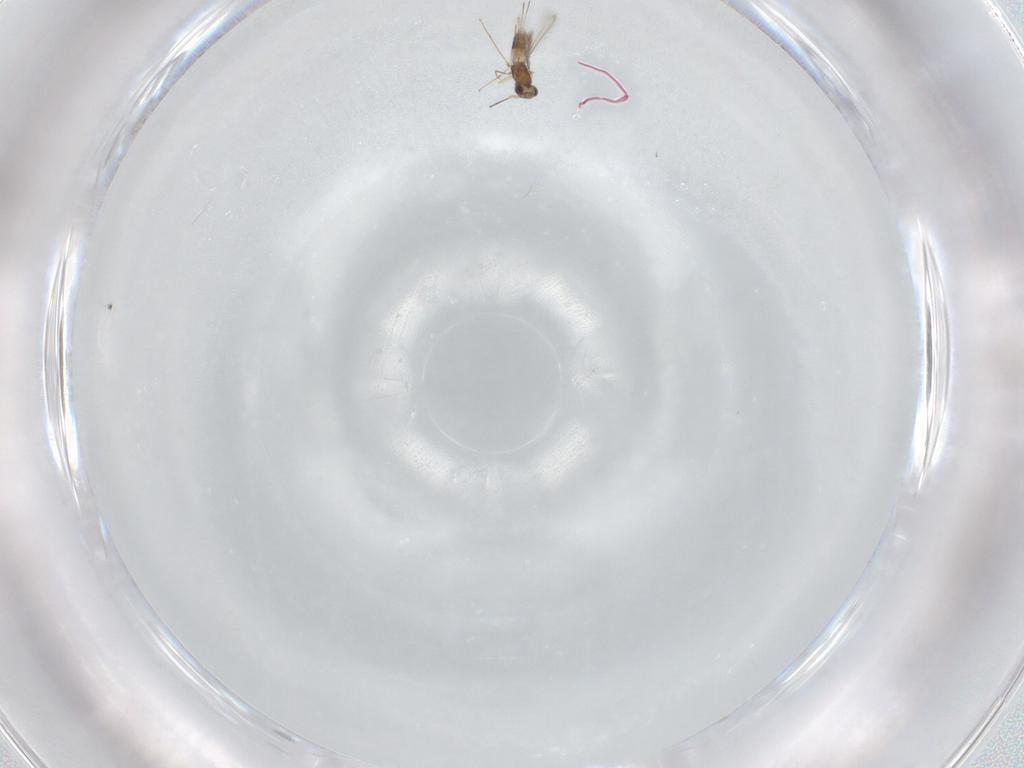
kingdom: Animalia
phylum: Arthropoda
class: Insecta
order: Hymenoptera
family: Mymaridae
